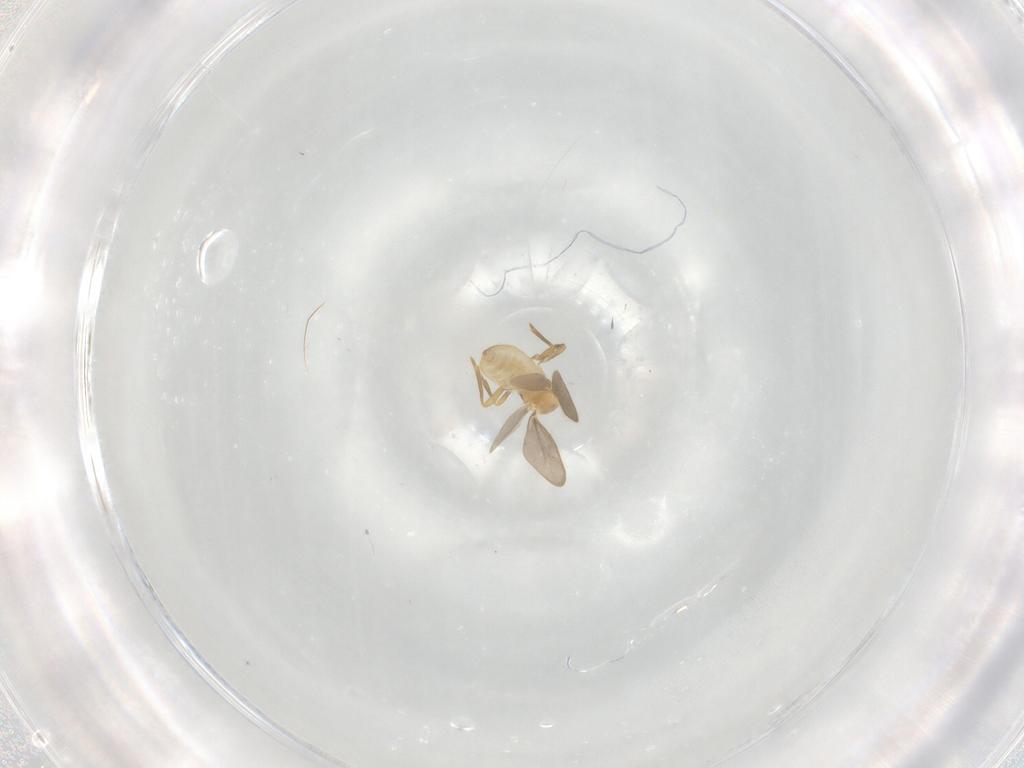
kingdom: Animalia
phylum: Arthropoda
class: Insecta
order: Hemiptera
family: Enicocephalidae
